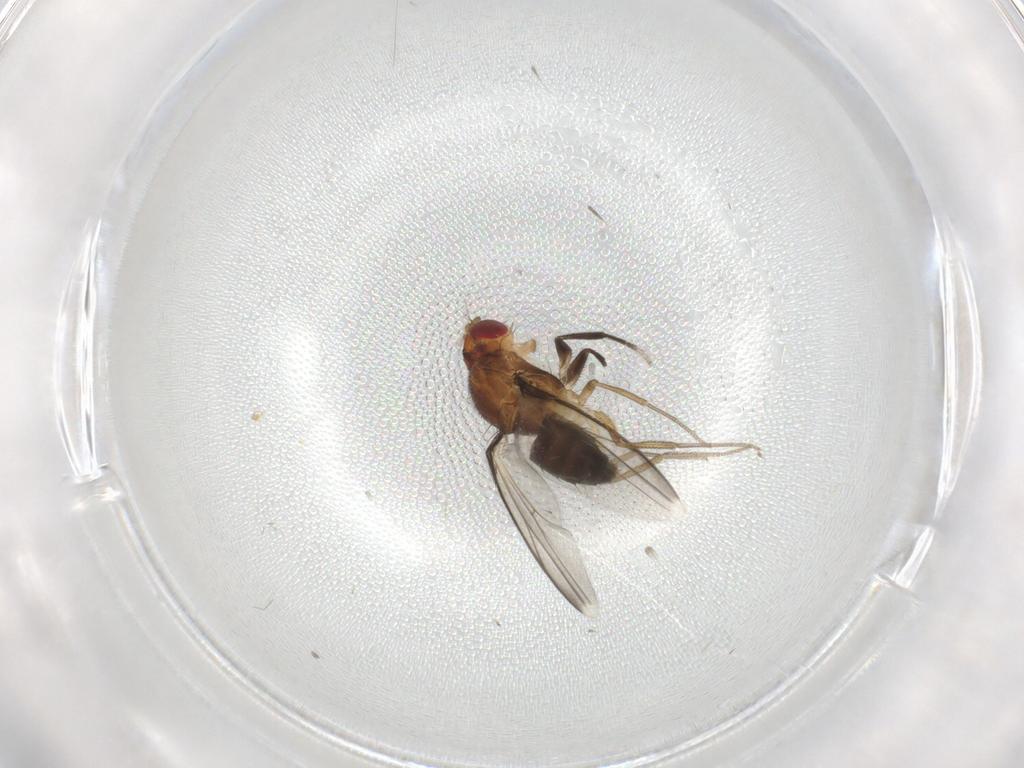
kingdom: Animalia
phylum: Arthropoda
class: Insecta
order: Diptera
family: Drosophilidae
